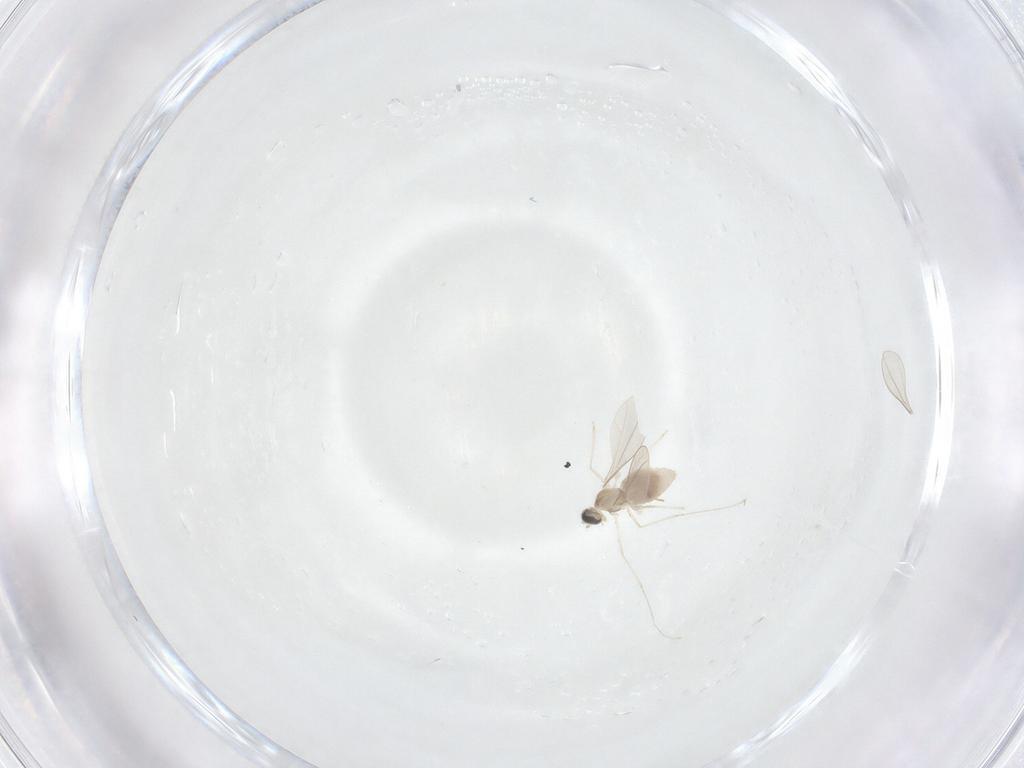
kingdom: Animalia
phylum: Arthropoda
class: Insecta
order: Diptera
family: Cecidomyiidae
